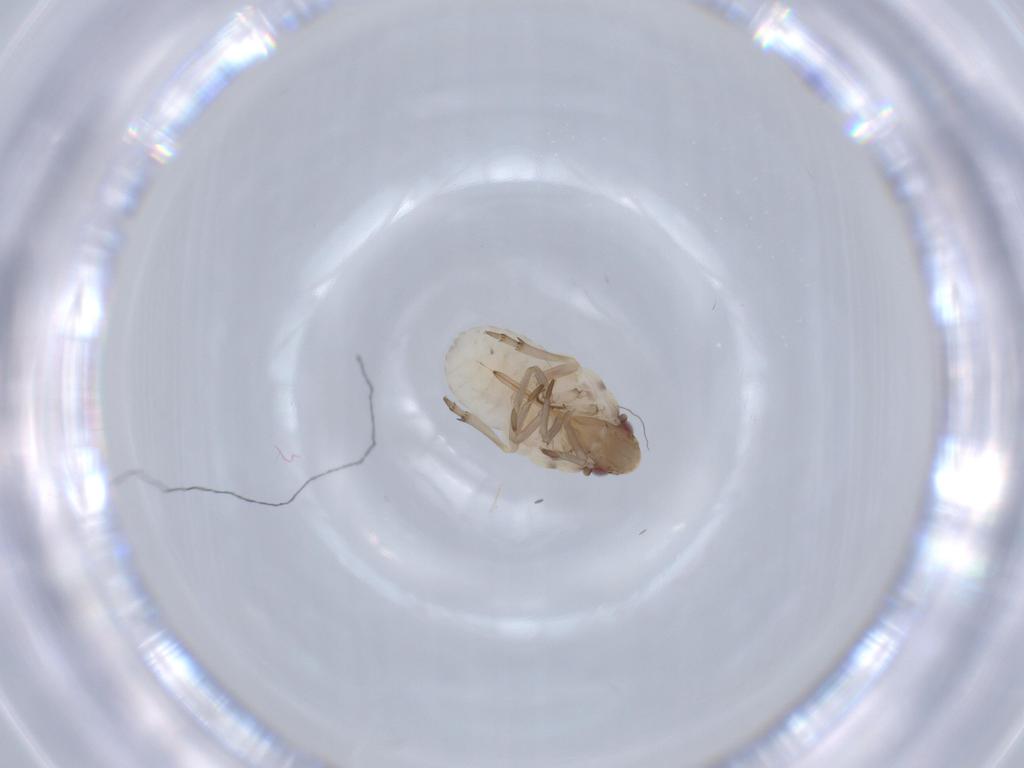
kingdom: Animalia
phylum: Arthropoda
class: Insecta
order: Hemiptera
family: Flatidae
